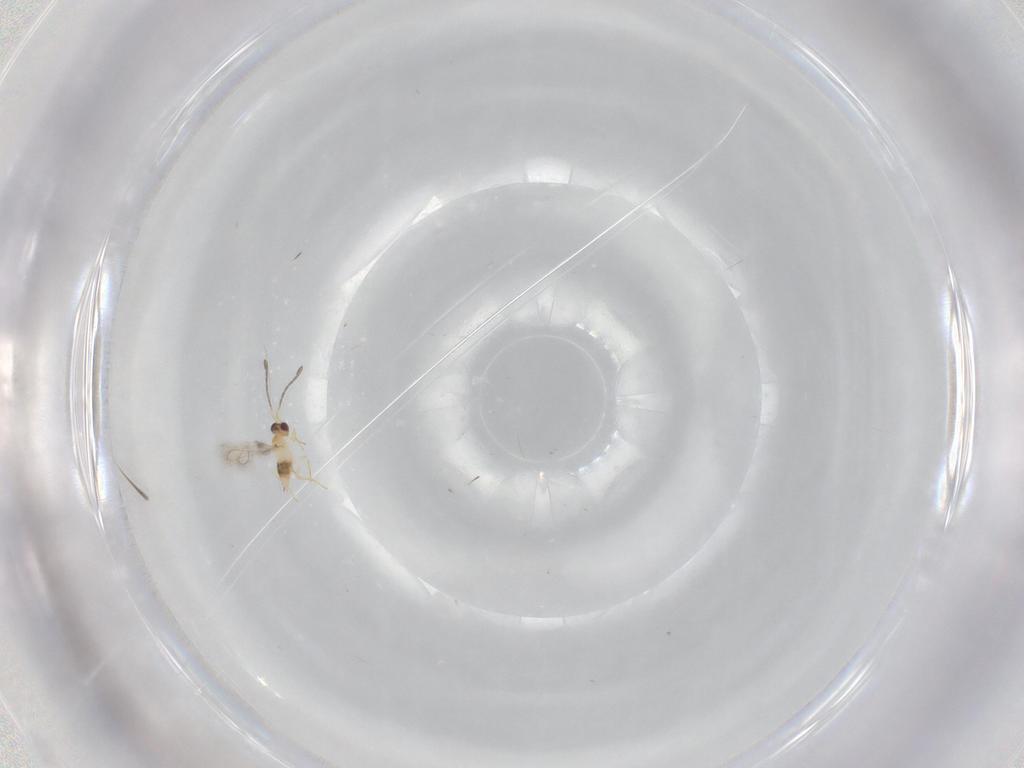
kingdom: Animalia
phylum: Arthropoda
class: Insecta
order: Hymenoptera
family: Mymaridae
